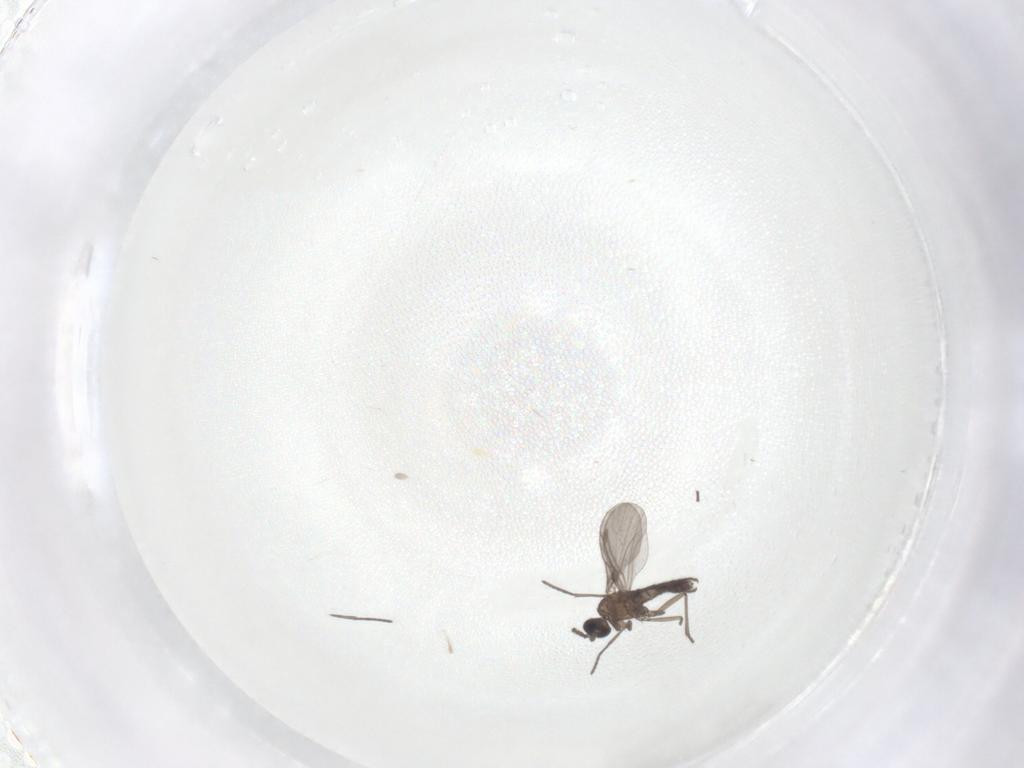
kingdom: Animalia
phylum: Arthropoda
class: Insecta
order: Diptera
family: Sciaridae
